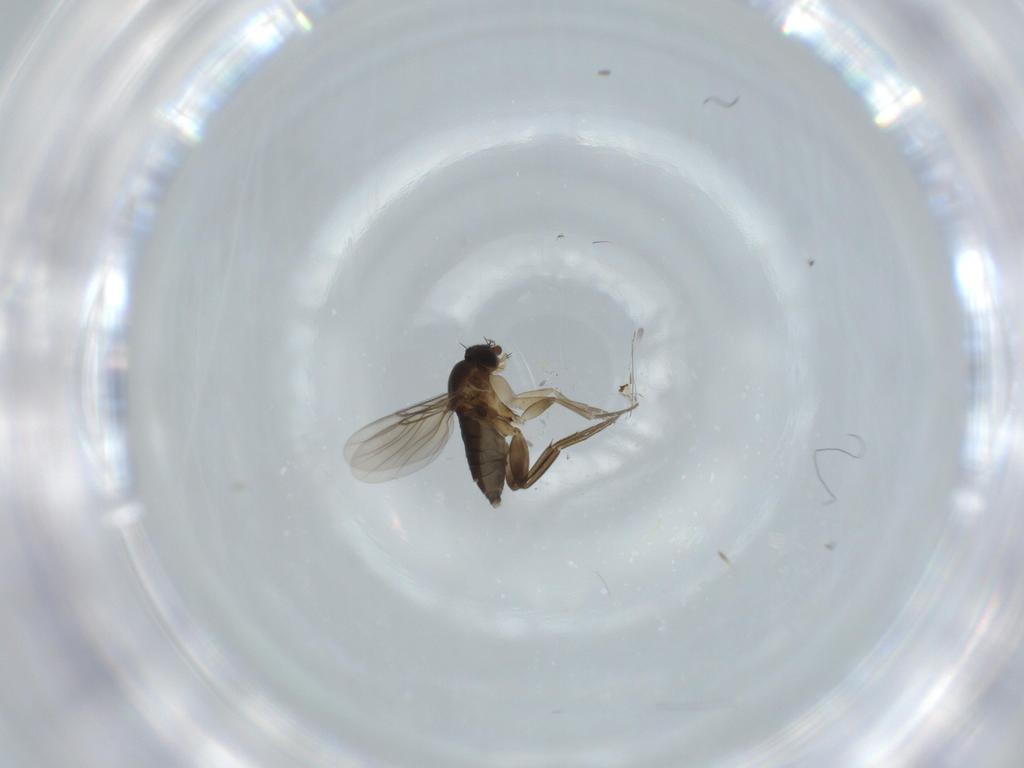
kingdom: Animalia
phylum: Arthropoda
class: Insecta
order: Diptera
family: Phoridae
